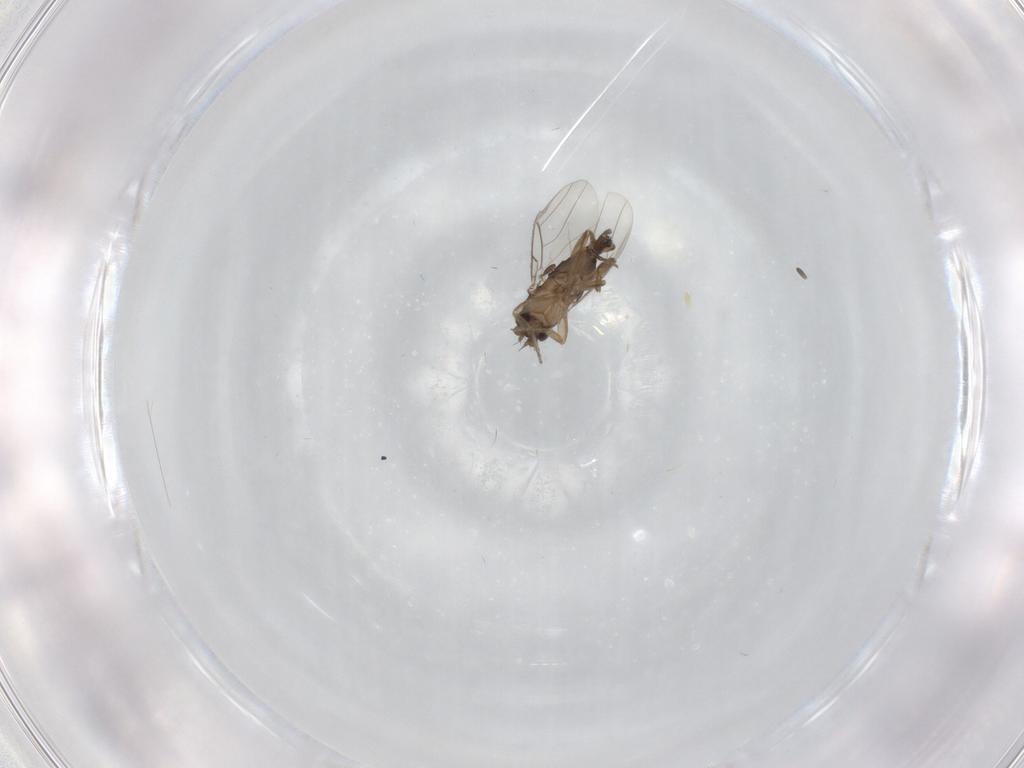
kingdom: Animalia
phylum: Arthropoda
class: Insecta
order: Diptera
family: Phoridae
